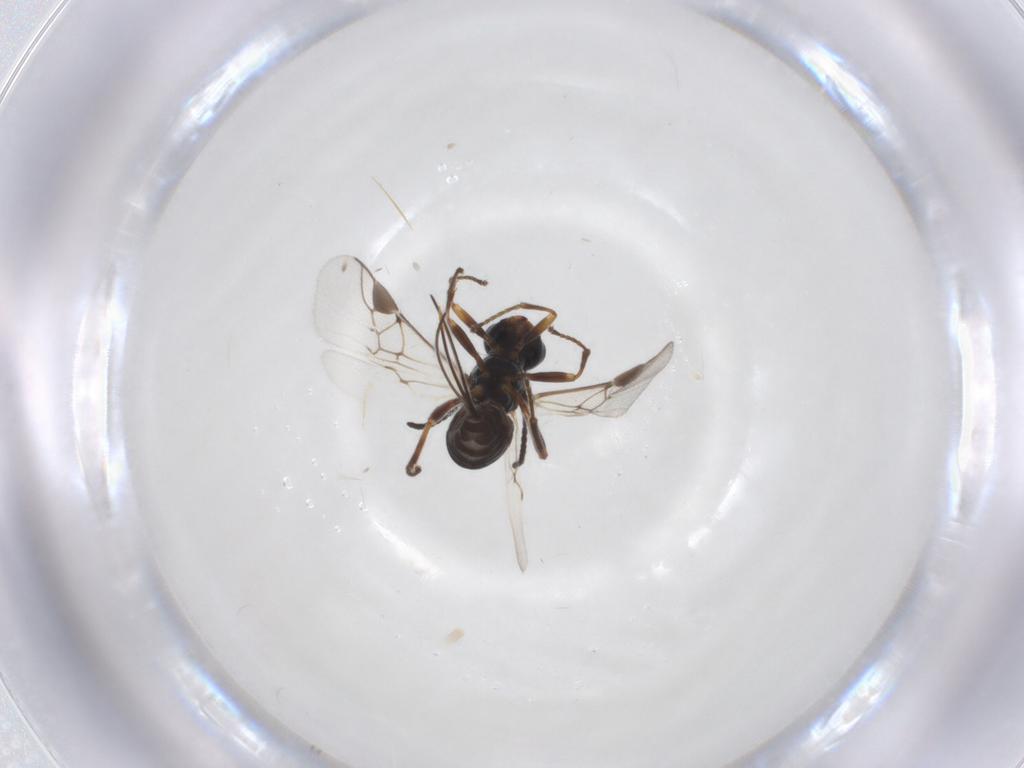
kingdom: Animalia
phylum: Arthropoda
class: Insecta
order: Hymenoptera
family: Braconidae
